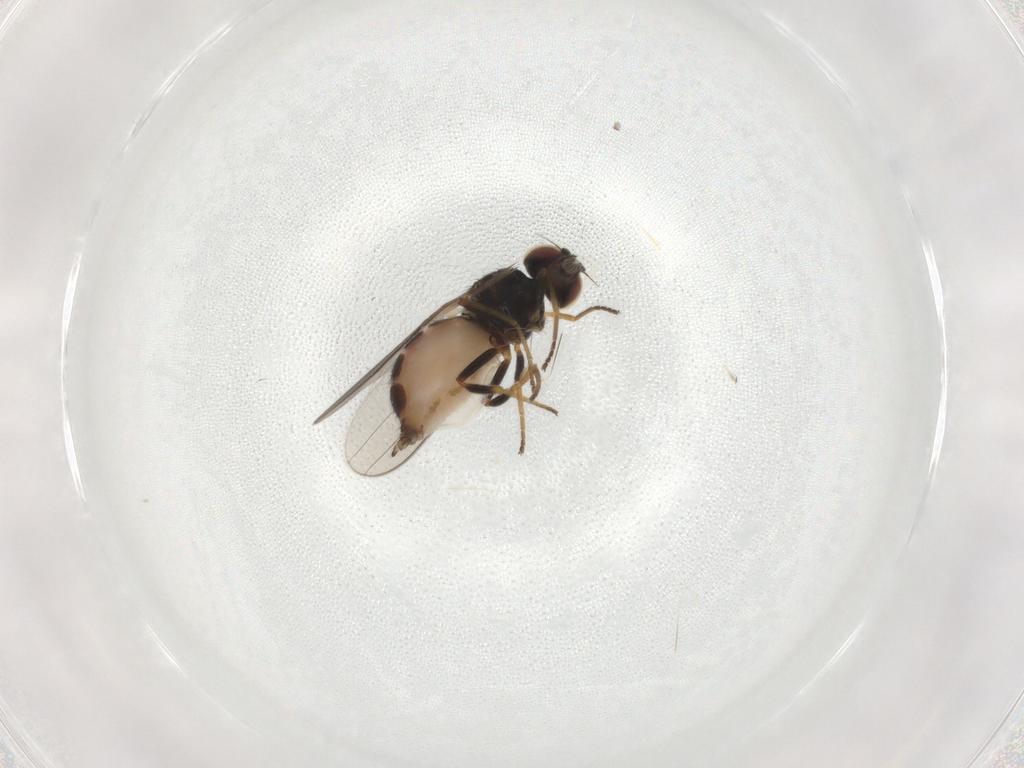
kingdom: Animalia
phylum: Arthropoda
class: Insecta
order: Diptera
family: Chloropidae
